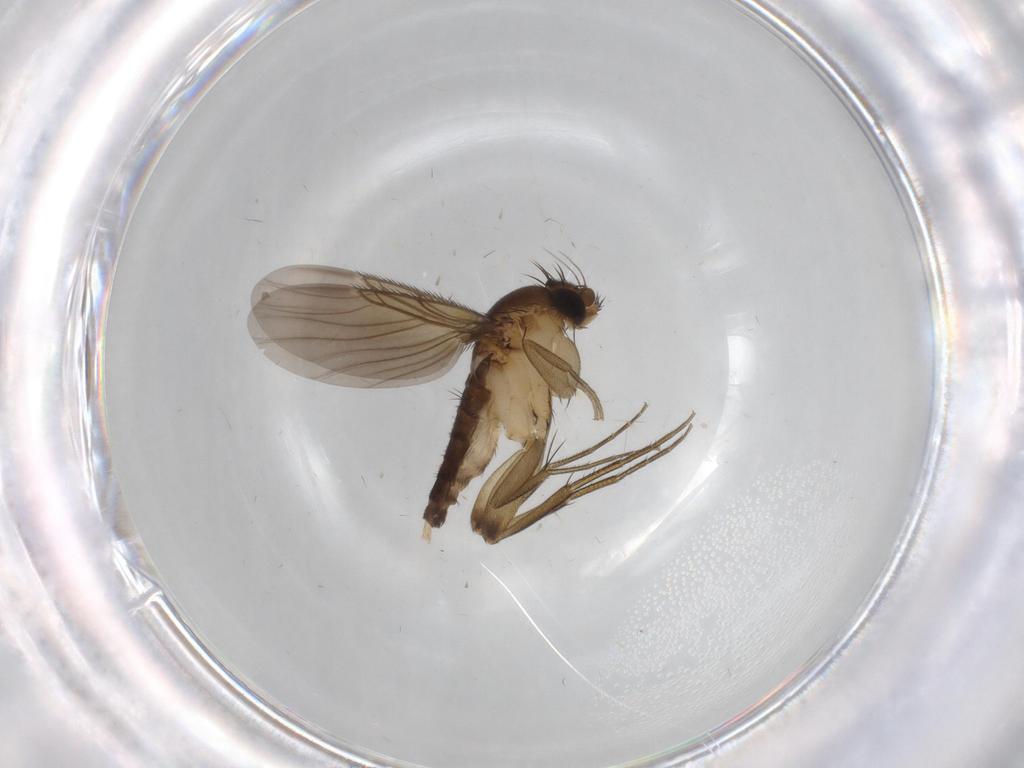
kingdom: Animalia
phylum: Arthropoda
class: Insecta
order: Diptera
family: Phoridae
